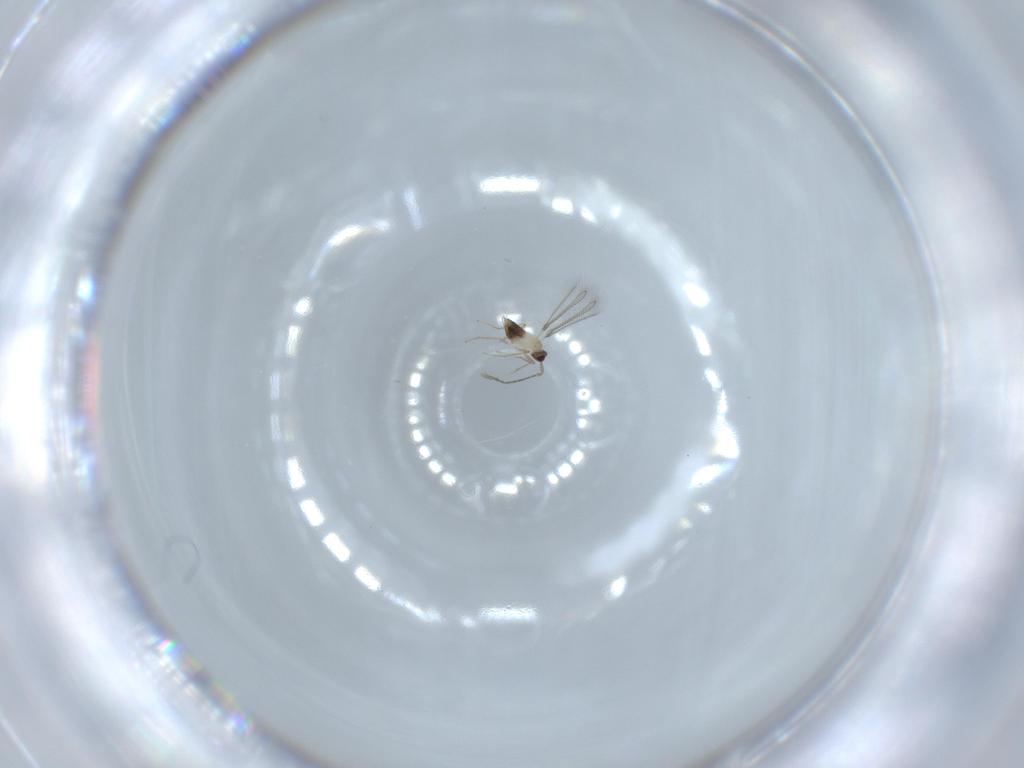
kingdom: Animalia
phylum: Arthropoda
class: Insecta
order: Hymenoptera
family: Mymaridae
